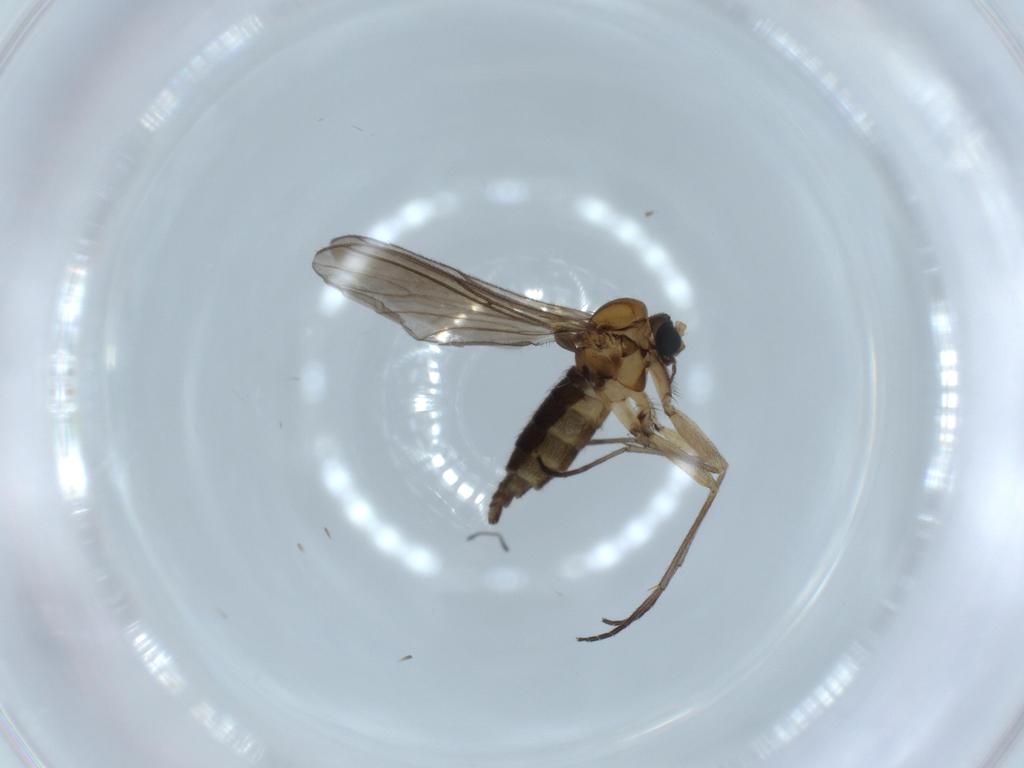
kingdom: Animalia
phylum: Arthropoda
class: Insecta
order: Diptera
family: Sciaridae
